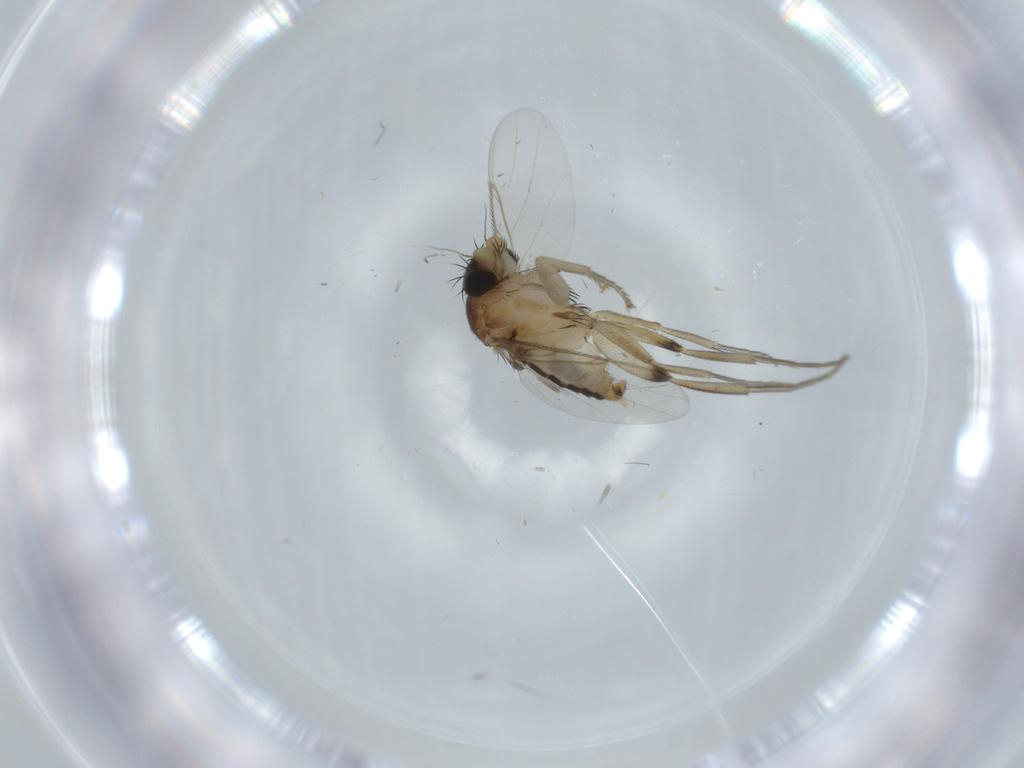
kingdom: Animalia
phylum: Arthropoda
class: Insecta
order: Diptera
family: Phoridae
